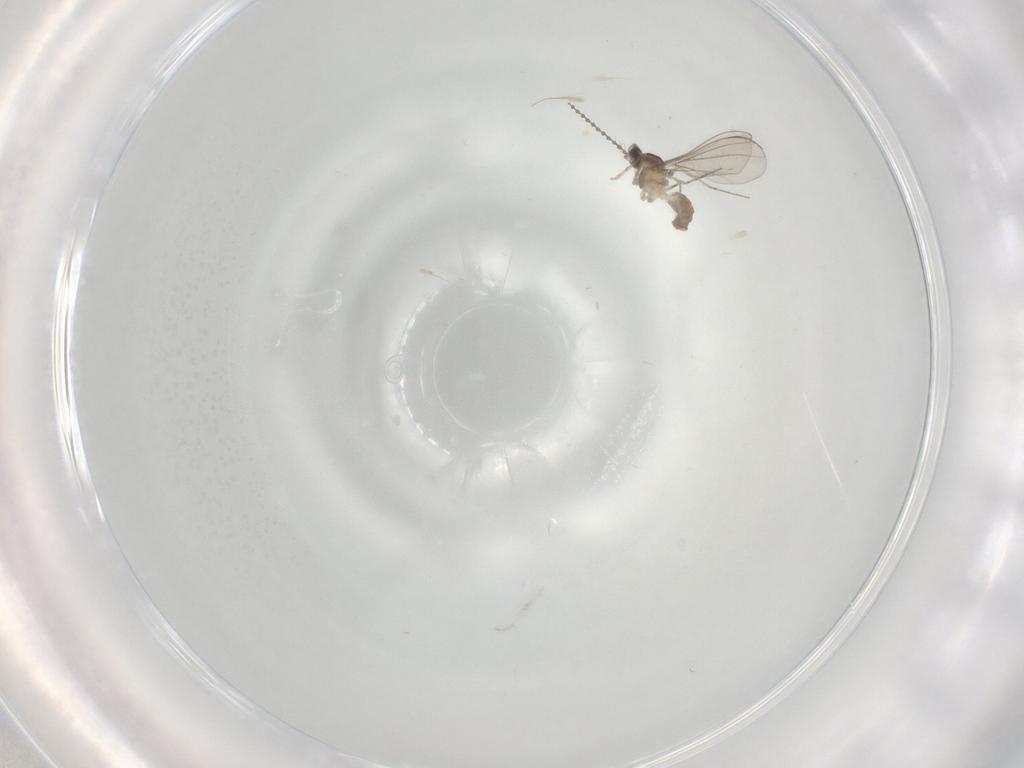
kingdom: Animalia
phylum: Arthropoda
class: Insecta
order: Diptera
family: Cecidomyiidae
